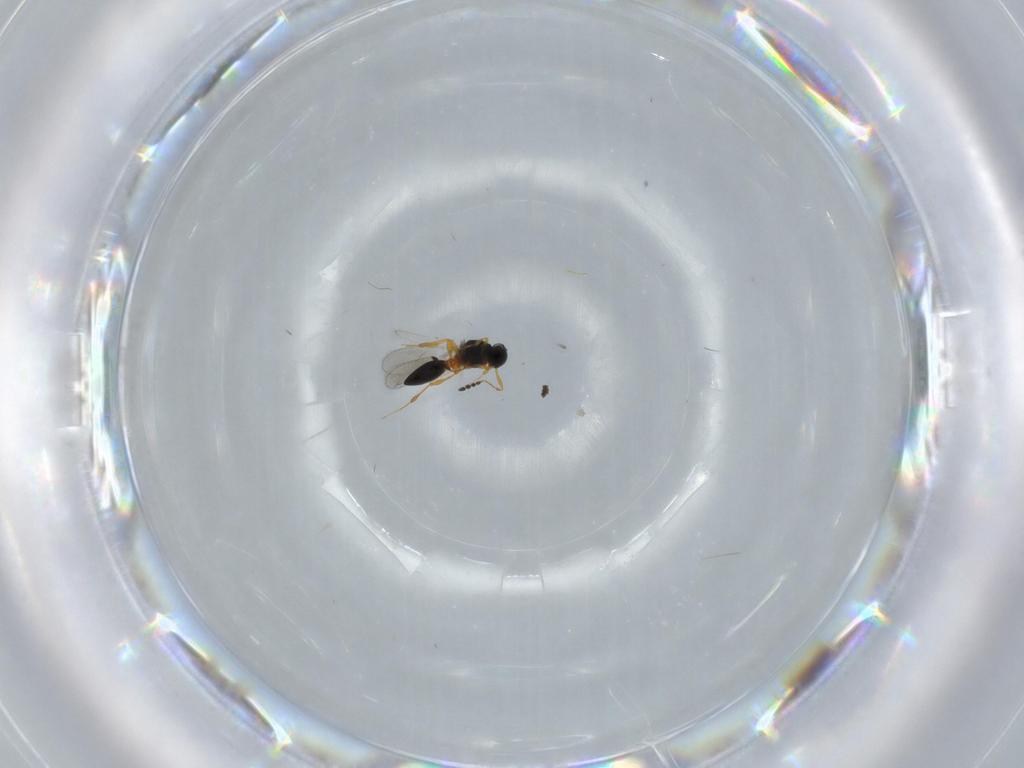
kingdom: Animalia
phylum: Arthropoda
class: Insecta
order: Hymenoptera
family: Platygastridae
